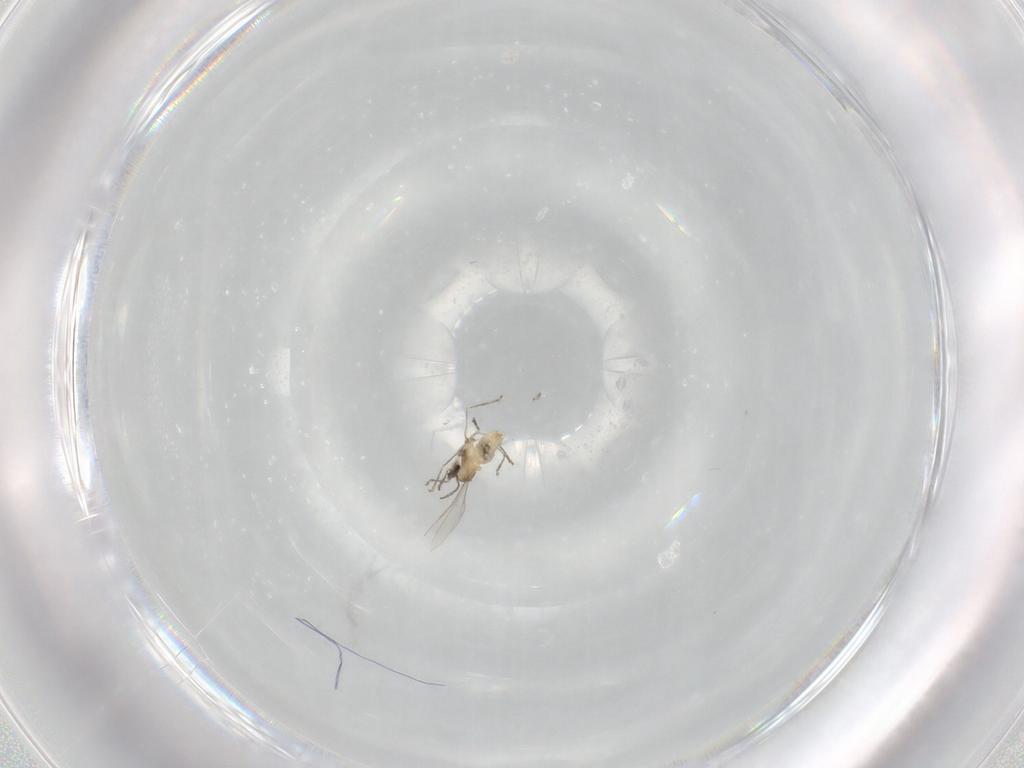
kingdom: Animalia
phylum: Arthropoda
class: Insecta
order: Diptera
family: Cecidomyiidae
